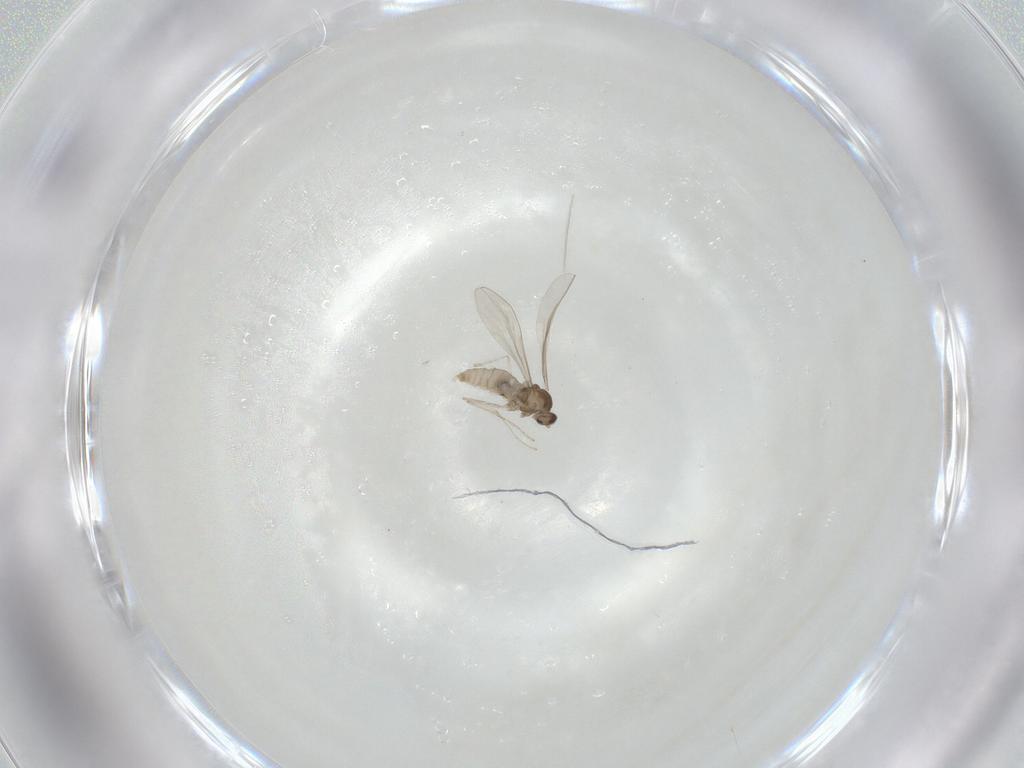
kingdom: Animalia
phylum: Arthropoda
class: Insecta
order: Diptera
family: Cecidomyiidae
